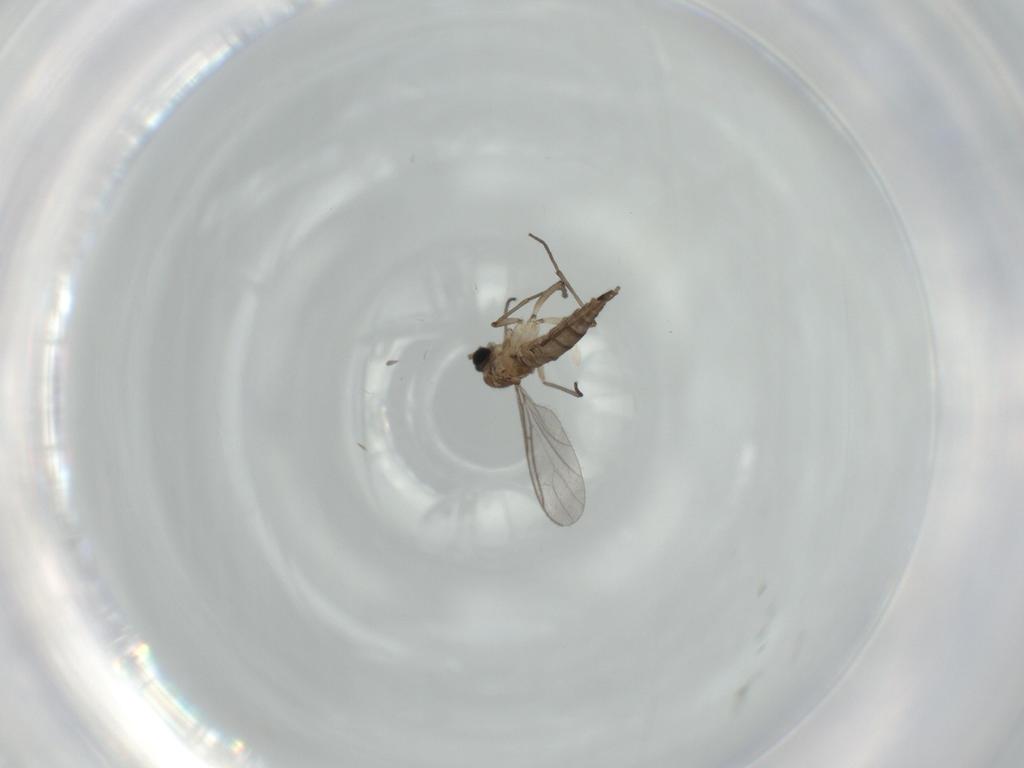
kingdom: Animalia
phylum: Arthropoda
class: Insecta
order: Diptera
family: Sciaridae
